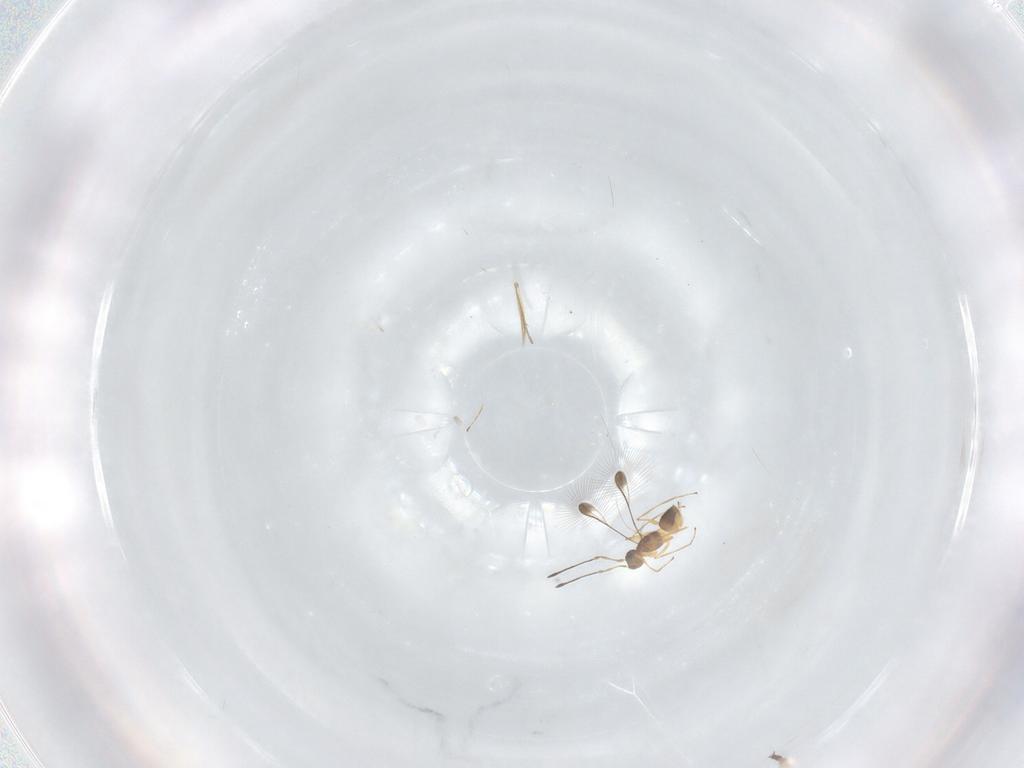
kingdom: Animalia
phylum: Arthropoda
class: Insecta
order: Hymenoptera
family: Mymaridae
